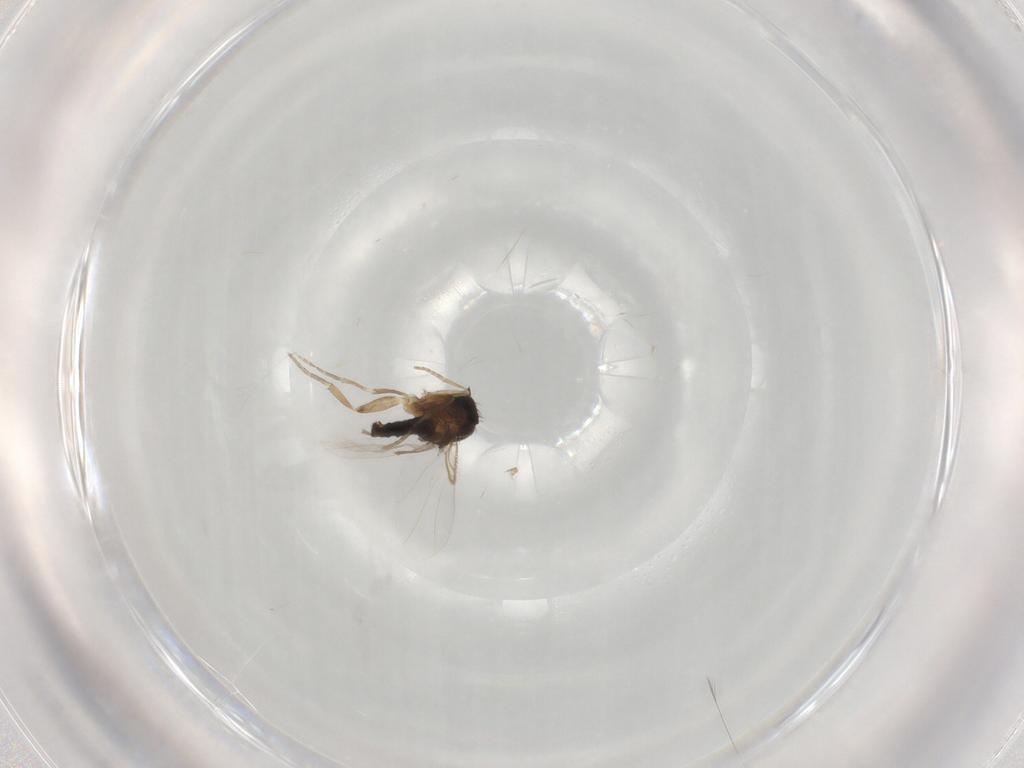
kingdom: Animalia
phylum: Arthropoda
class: Insecta
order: Diptera
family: Phoridae
